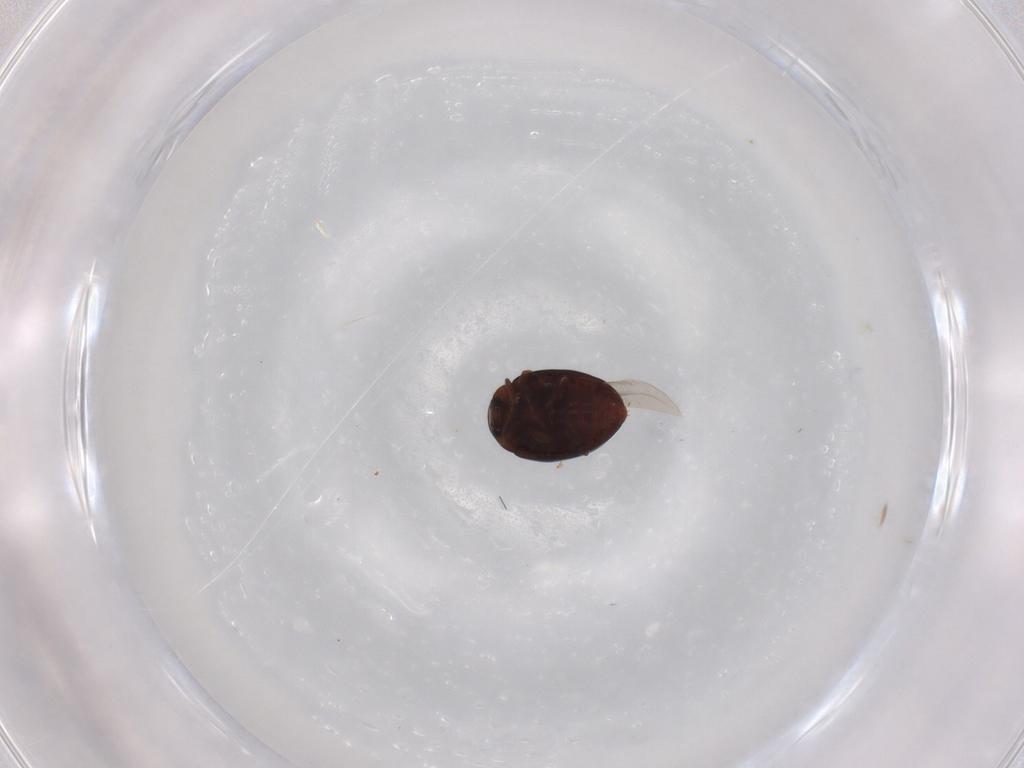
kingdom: Animalia
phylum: Arthropoda
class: Insecta
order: Coleoptera
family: Coccinellidae
